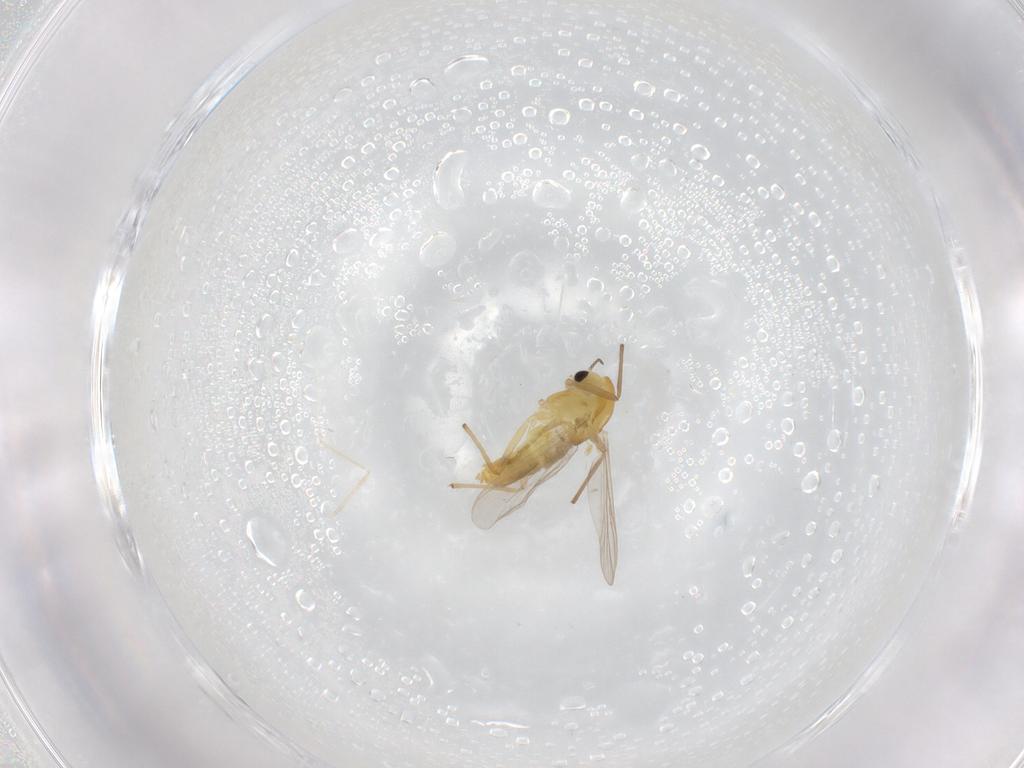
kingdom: Animalia
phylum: Arthropoda
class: Insecta
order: Diptera
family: Chironomidae
